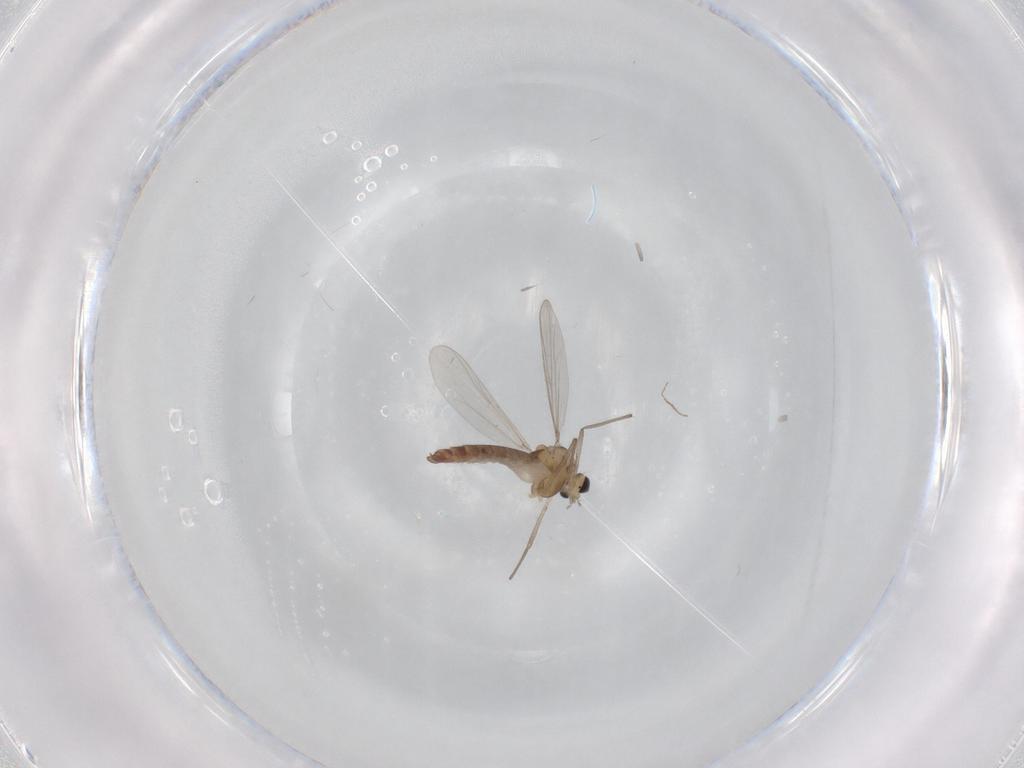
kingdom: Animalia
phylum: Arthropoda
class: Insecta
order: Diptera
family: Chironomidae
